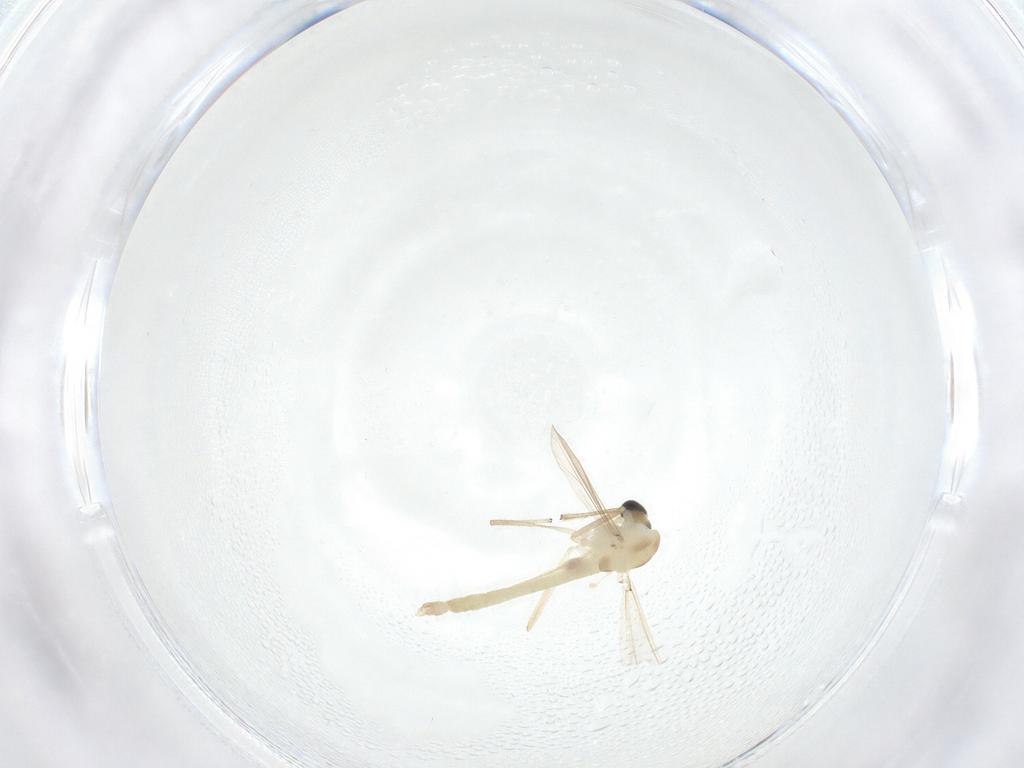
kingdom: Animalia
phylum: Arthropoda
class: Insecta
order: Diptera
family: Chironomidae
